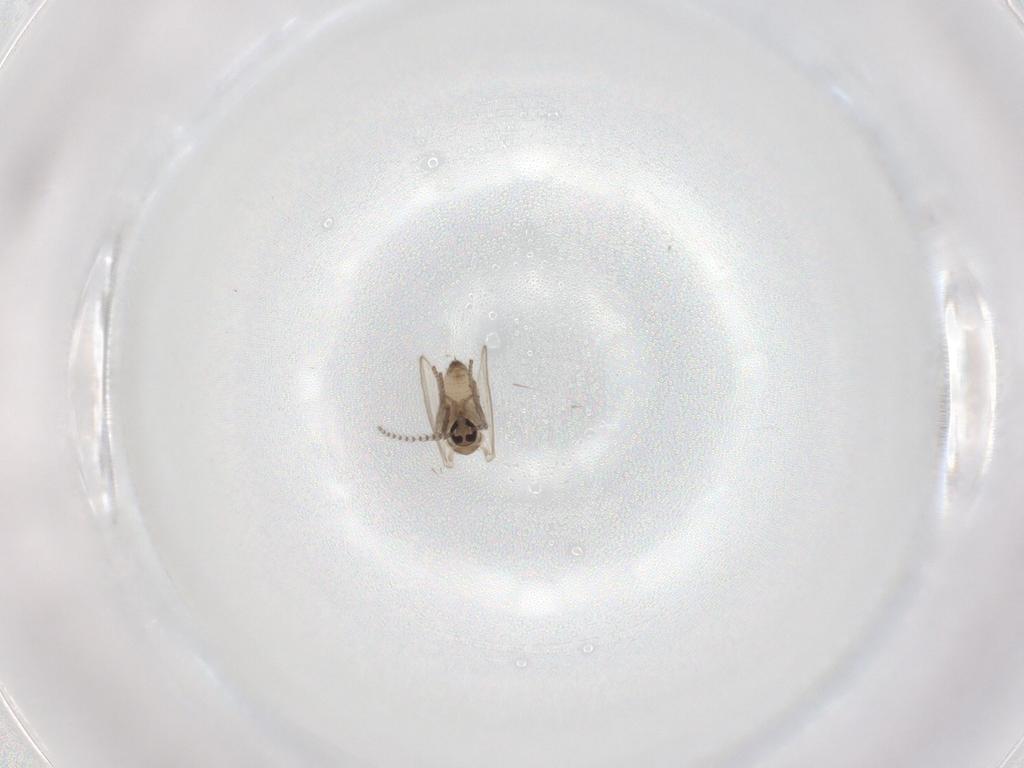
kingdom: Animalia
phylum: Arthropoda
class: Insecta
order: Diptera
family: Psychodidae
